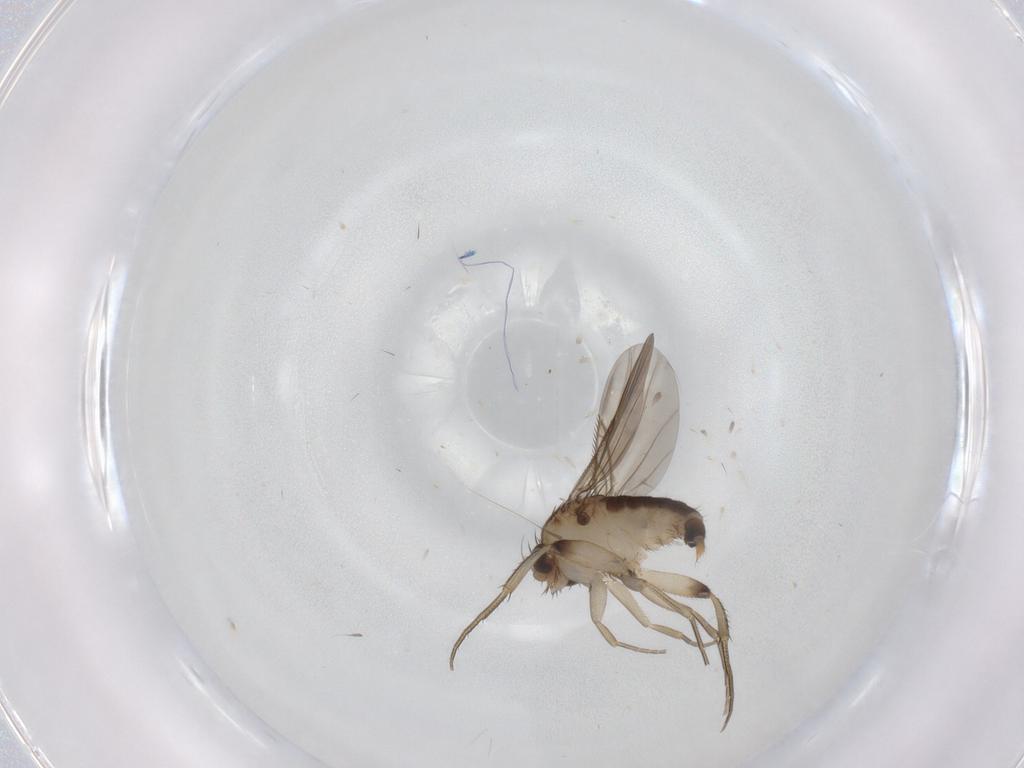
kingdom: Animalia
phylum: Arthropoda
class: Insecta
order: Diptera
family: Phoridae
